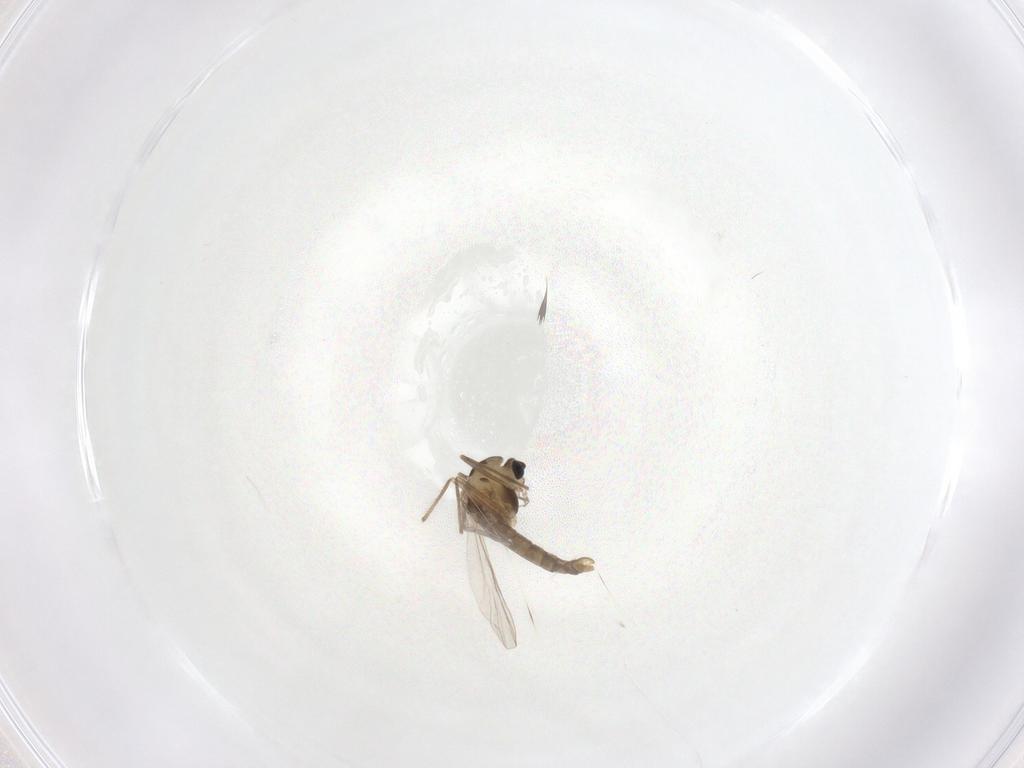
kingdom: Animalia
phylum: Arthropoda
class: Insecta
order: Diptera
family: Chironomidae
